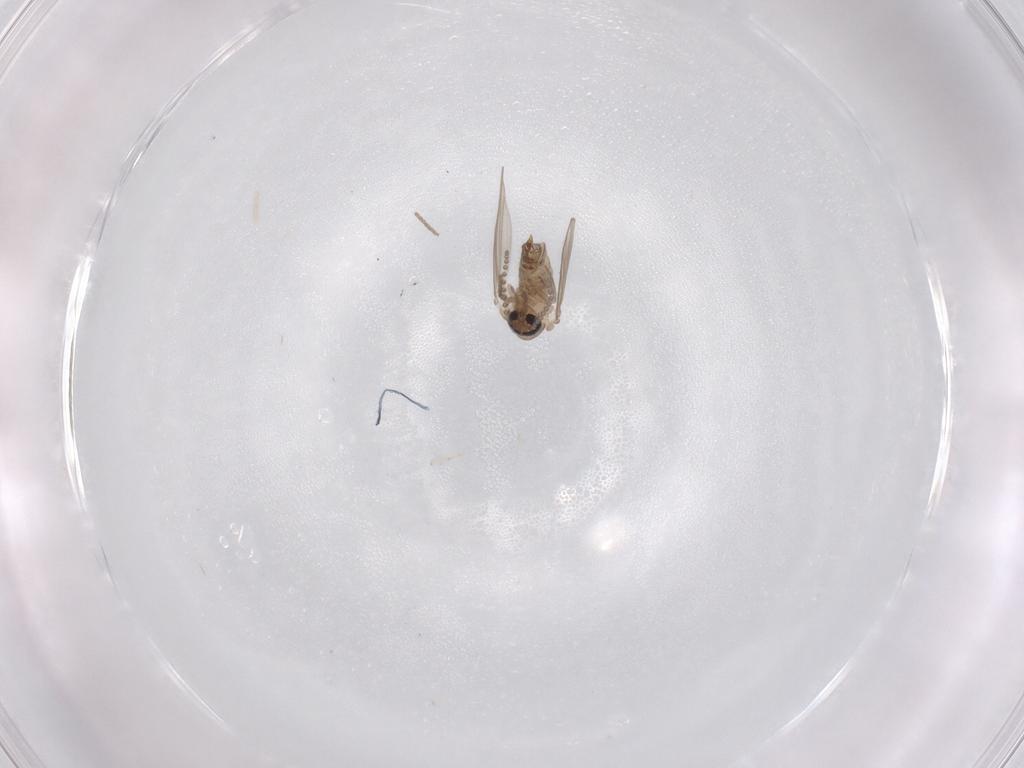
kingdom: Animalia
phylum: Arthropoda
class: Insecta
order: Diptera
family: Psychodidae
